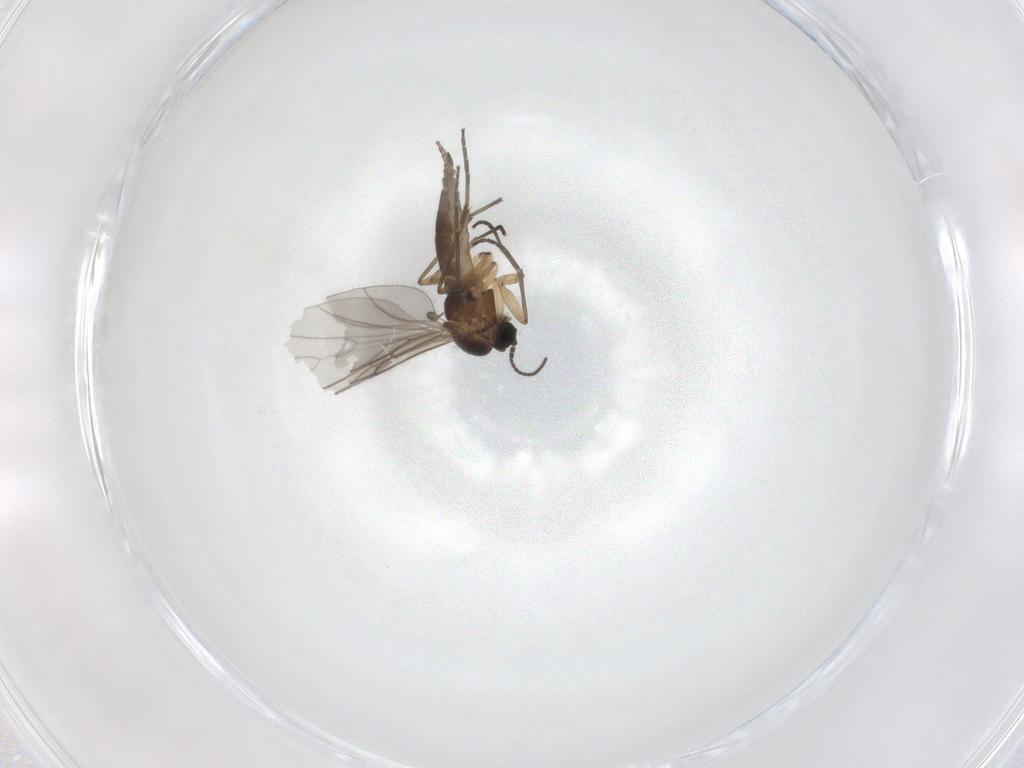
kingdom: Animalia
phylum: Arthropoda
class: Insecta
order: Diptera
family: Sciaridae
